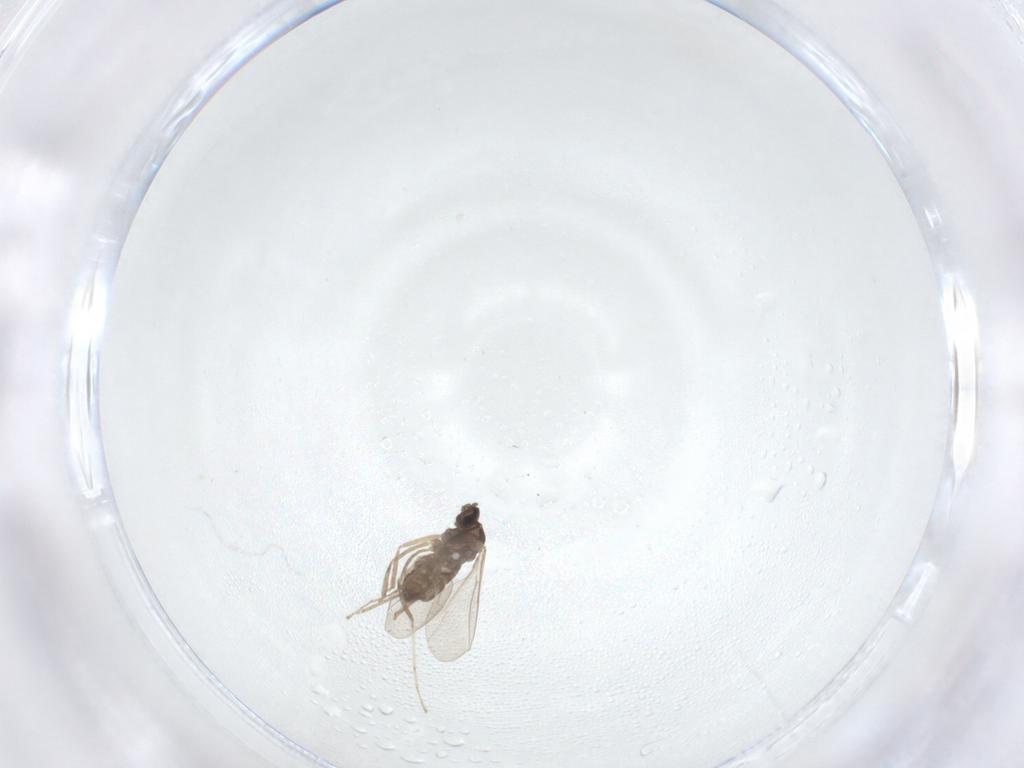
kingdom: Animalia
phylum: Arthropoda
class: Insecta
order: Diptera
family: Chironomidae
